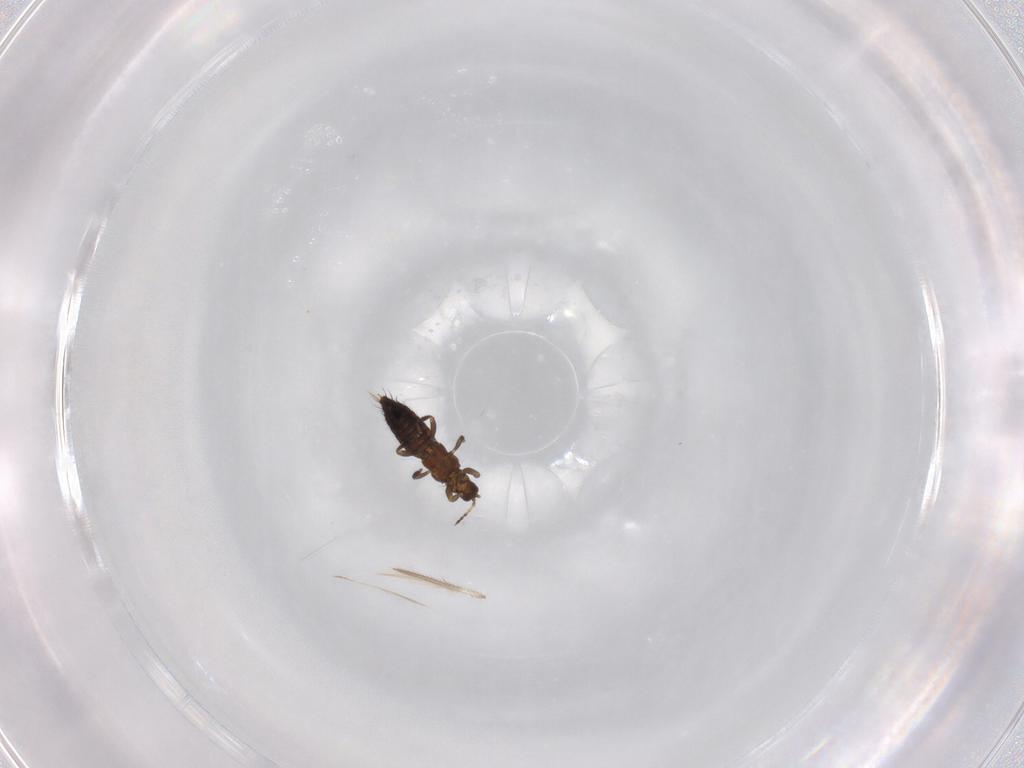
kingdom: Animalia
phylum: Arthropoda
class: Insecta
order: Thysanoptera
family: Thripidae
